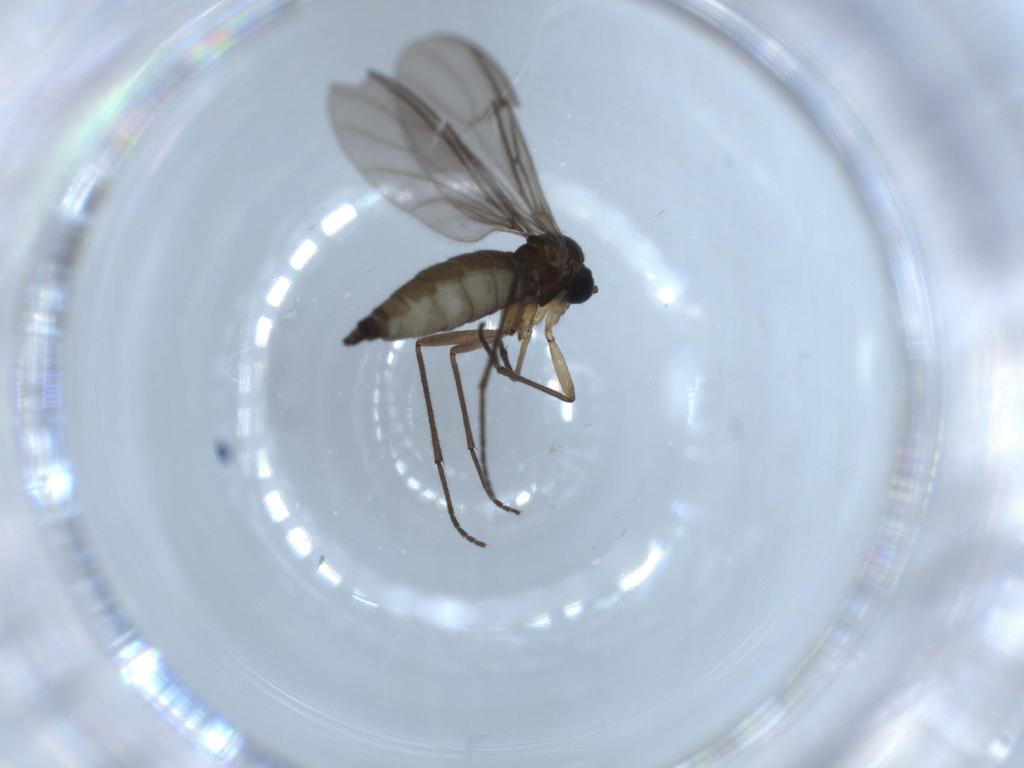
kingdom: Animalia
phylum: Arthropoda
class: Insecta
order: Diptera
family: Sciaridae
